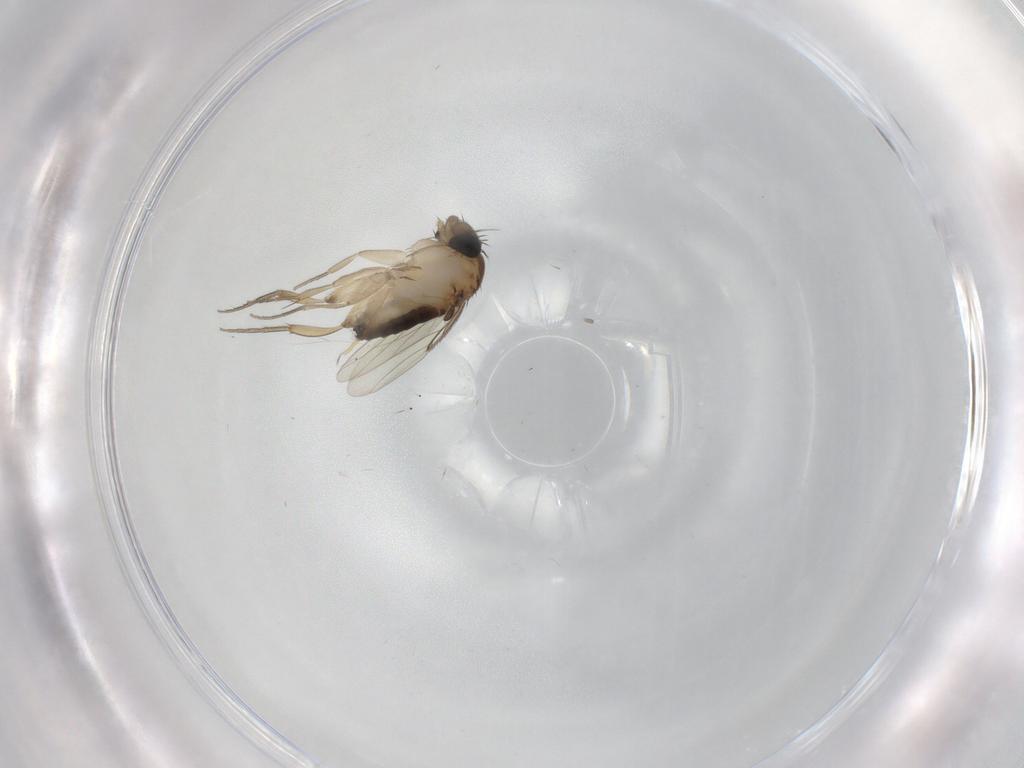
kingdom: Animalia
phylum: Arthropoda
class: Insecta
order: Diptera
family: Phoridae
